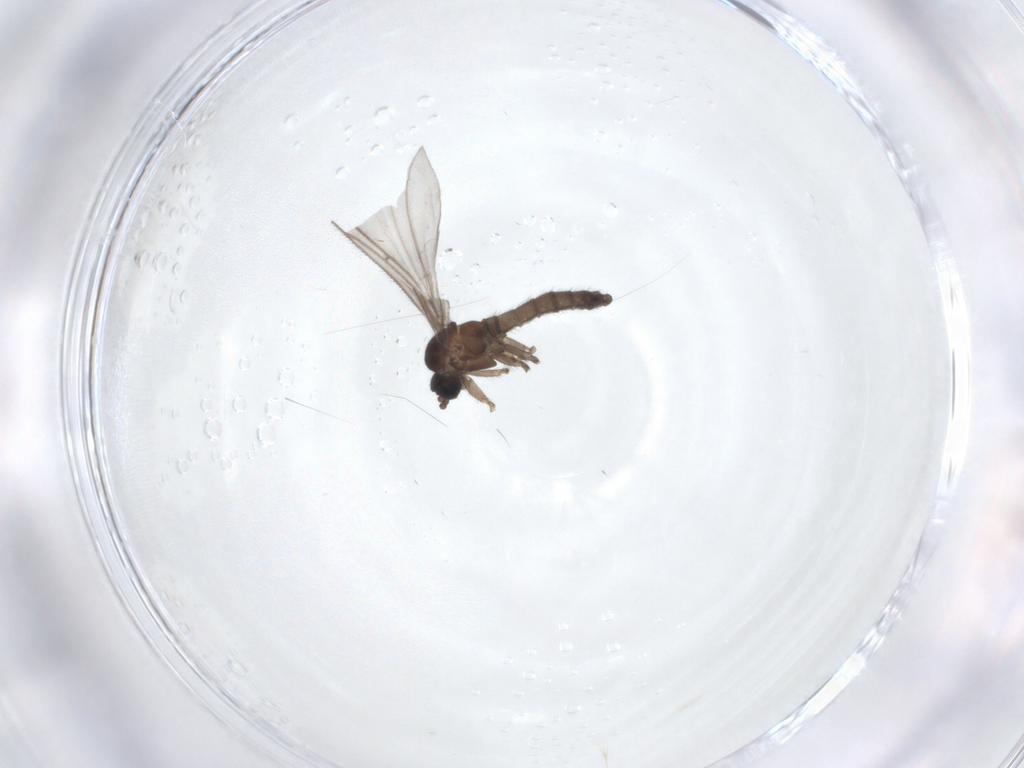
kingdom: Animalia
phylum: Arthropoda
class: Insecta
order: Diptera
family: Sciaridae
